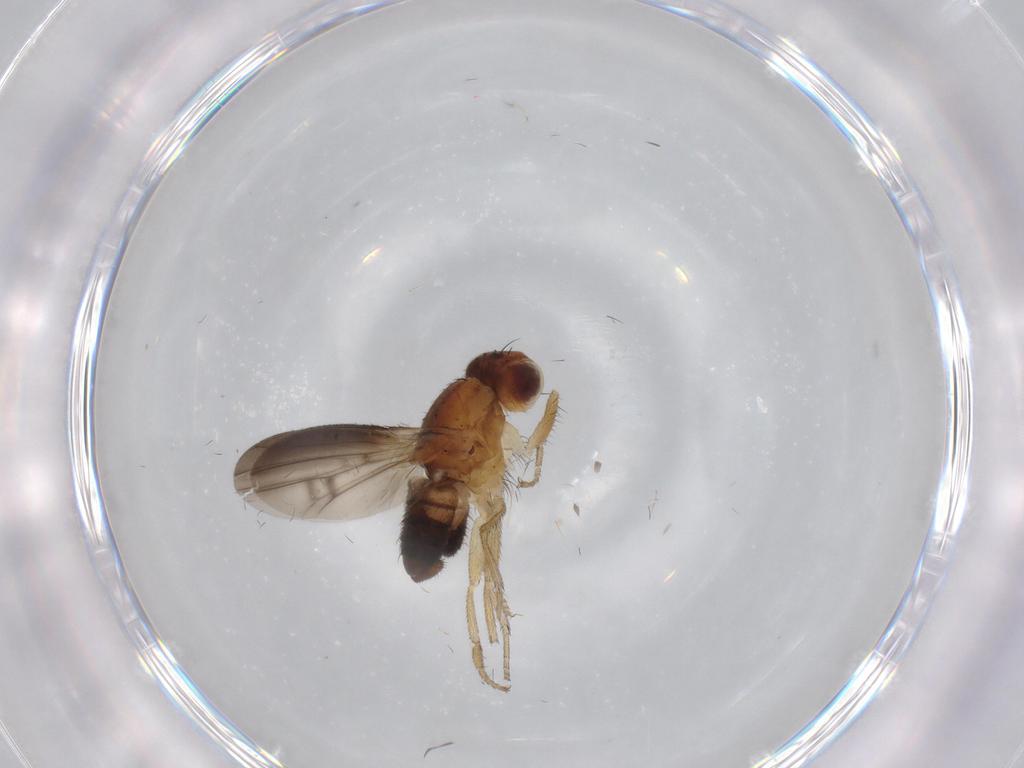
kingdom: Animalia
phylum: Arthropoda
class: Insecta
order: Diptera
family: Heleomyzidae
